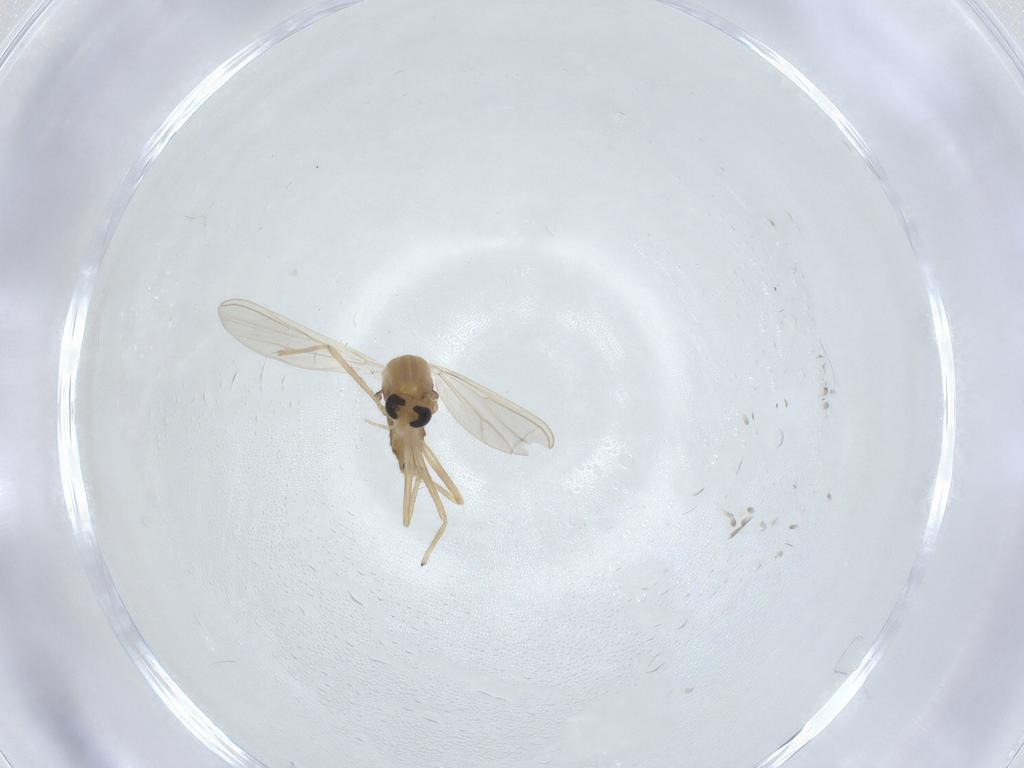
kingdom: Animalia
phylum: Arthropoda
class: Insecta
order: Diptera
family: Chironomidae
